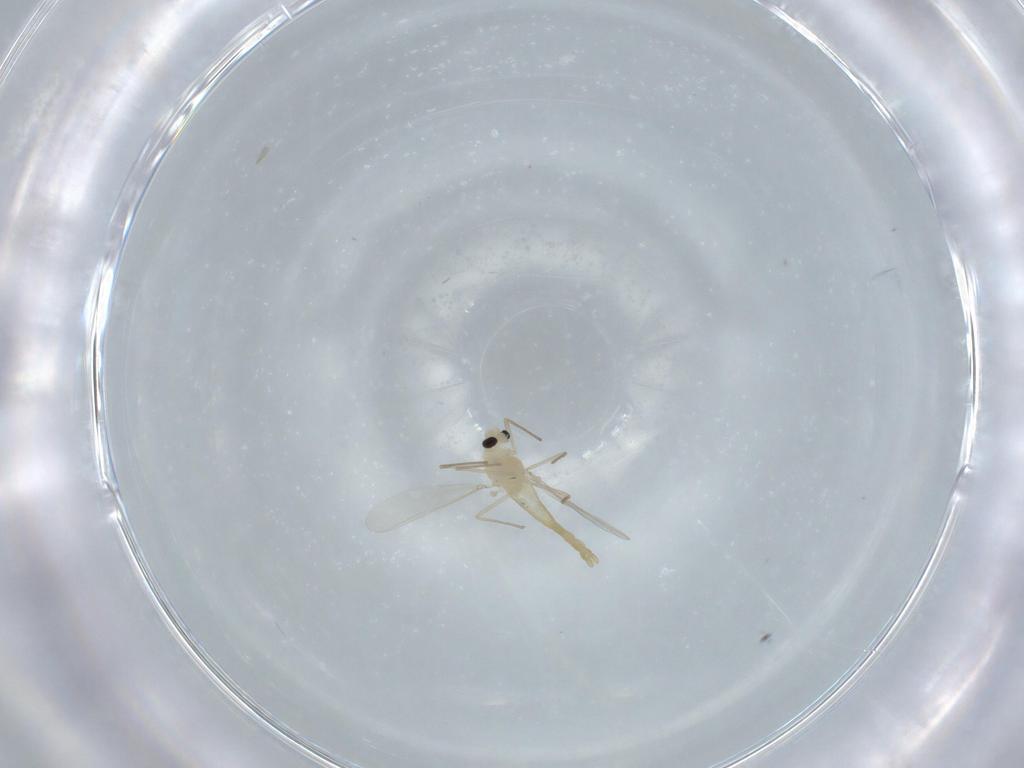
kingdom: Animalia
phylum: Arthropoda
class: Insecta
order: Diptera
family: Chironomidae
